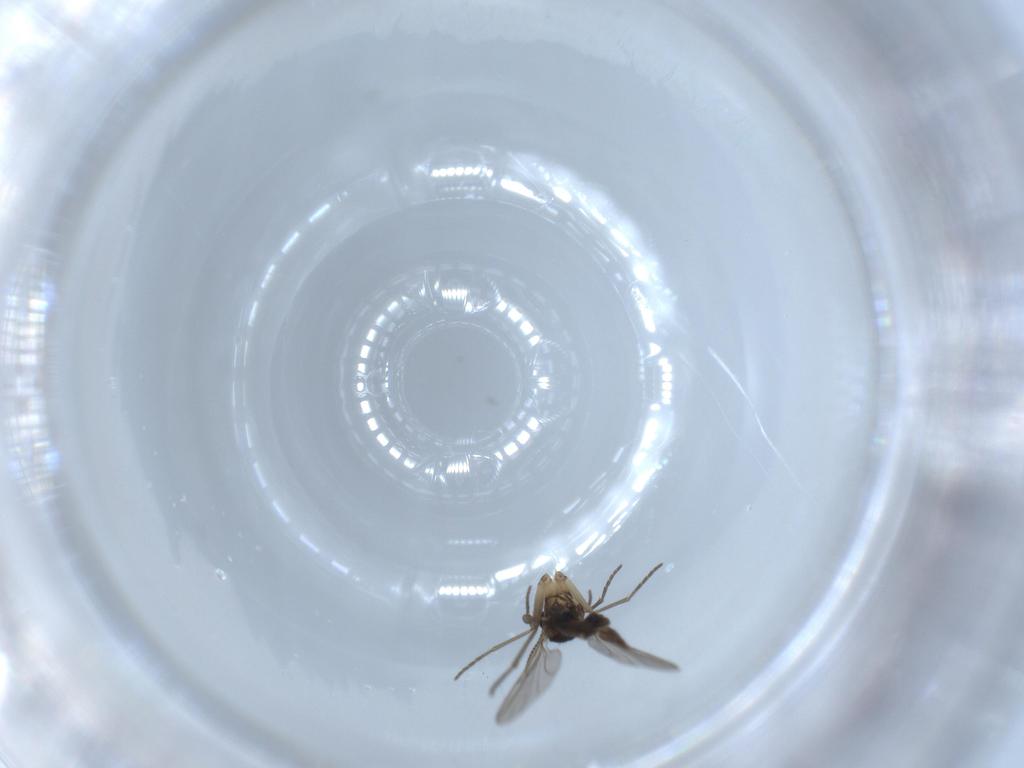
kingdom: Animalia
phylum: Arthropoda
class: Insecta
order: Diptera
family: Sciaridae
